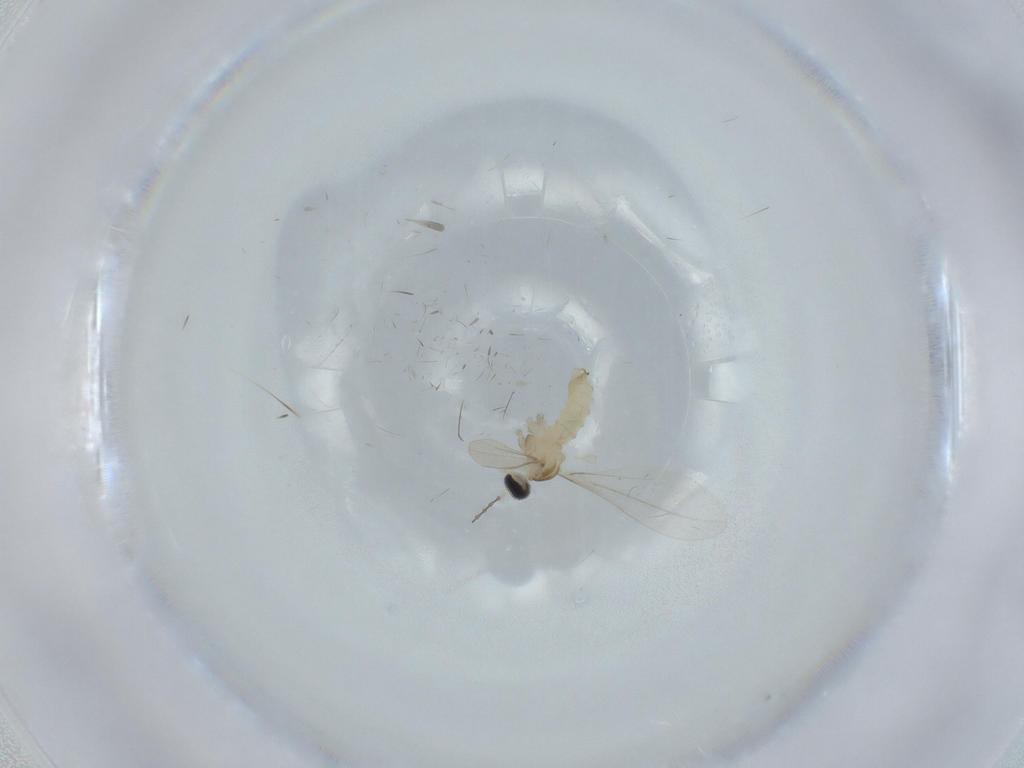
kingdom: Animalia
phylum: Arthropoda
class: Insecta
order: Diptera
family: Cecidomyiidae
